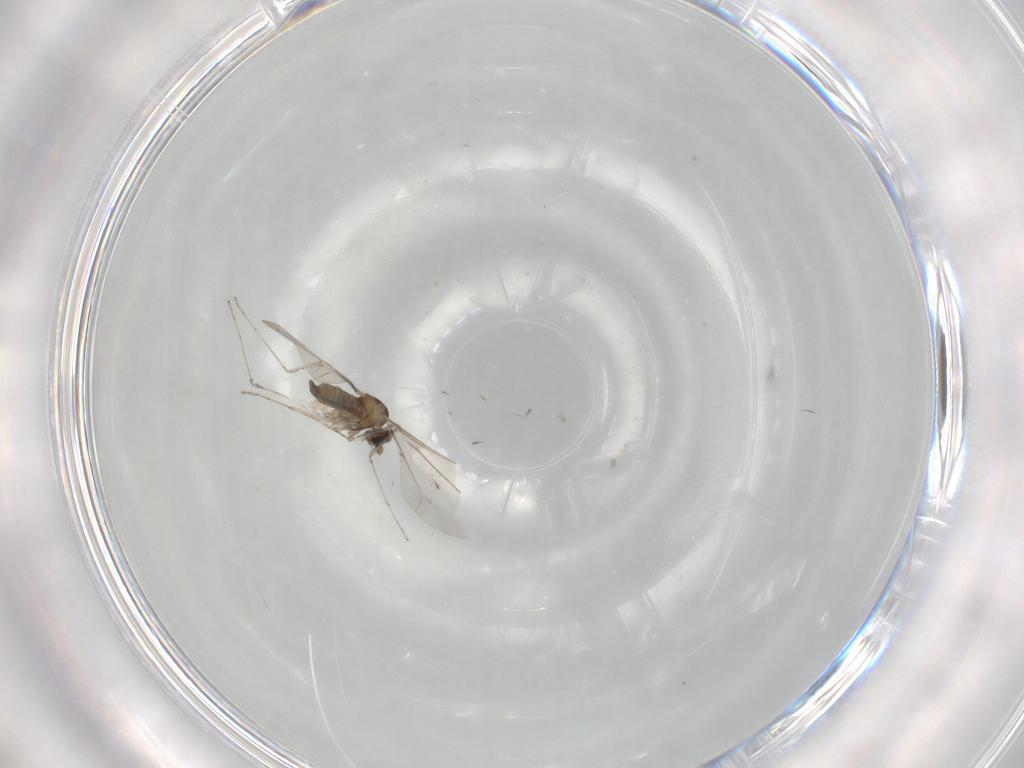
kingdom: Animalia
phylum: Arthropoda
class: Insecta
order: Diptera
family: Cecidomyiidae
